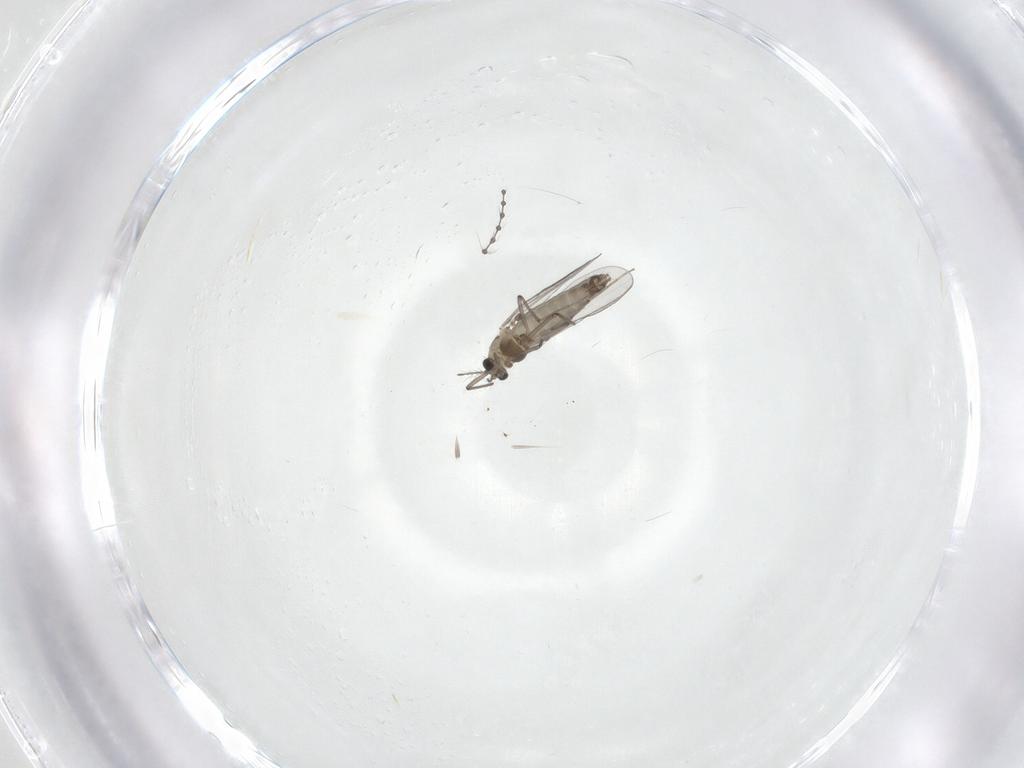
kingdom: Animalia
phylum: Arthropoda
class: Insecta
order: Diptera
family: Chironomidae
